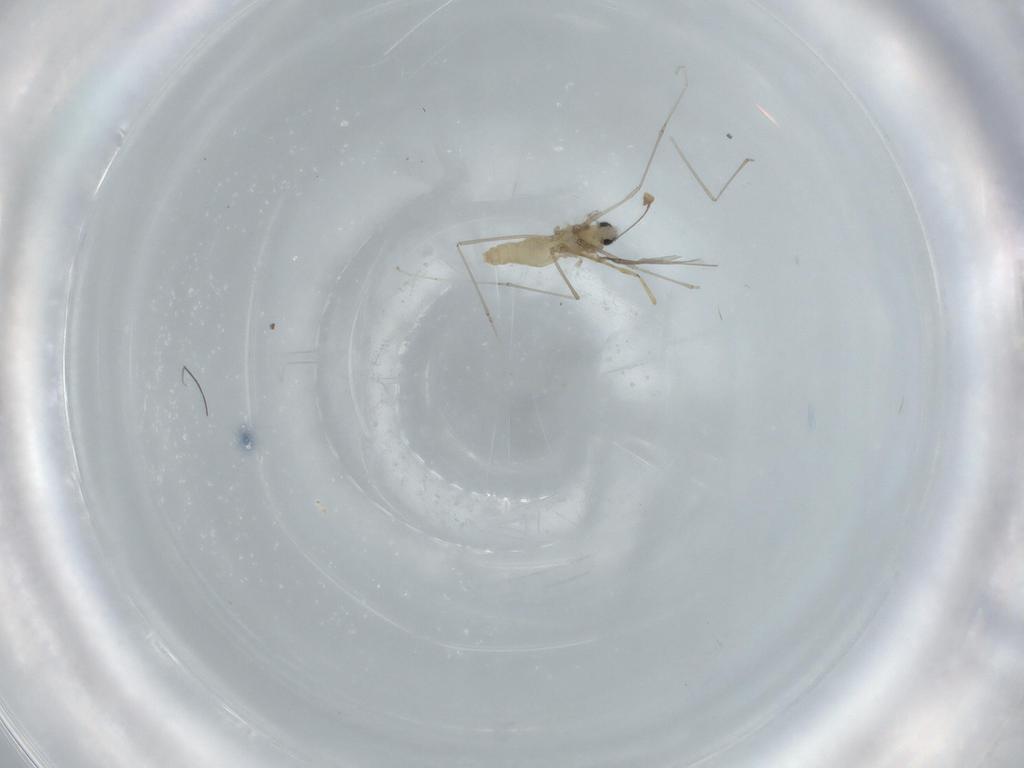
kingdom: Animalia
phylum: Arthropoda
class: Insecta
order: Diptera
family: Cecidomyiidae
